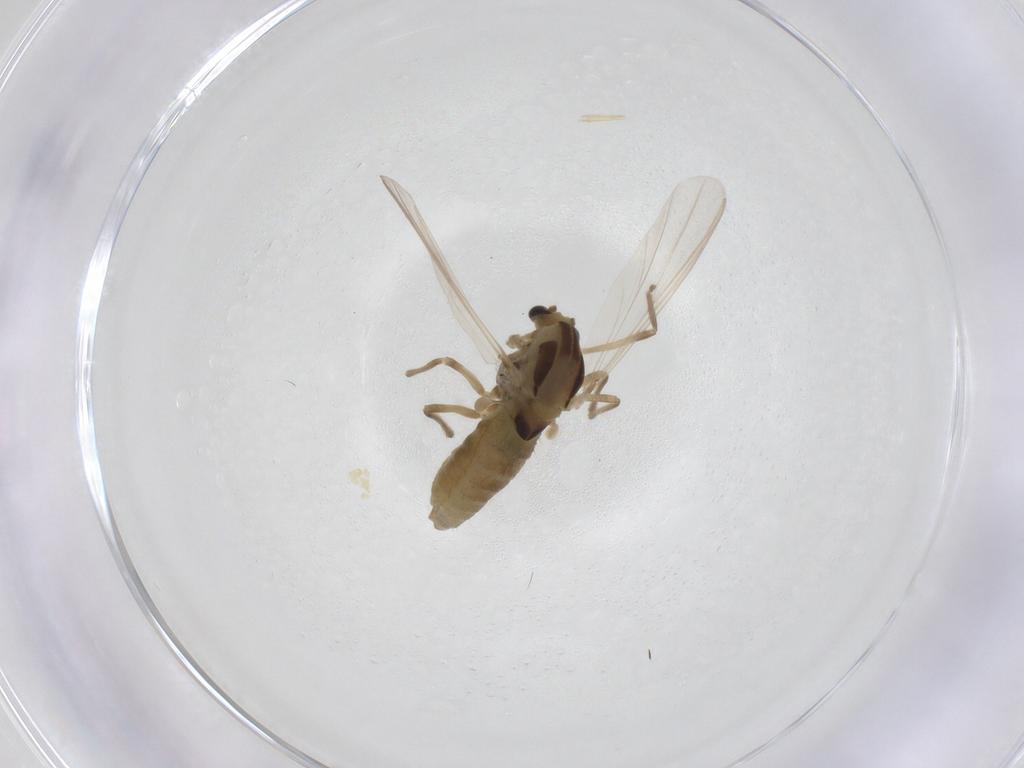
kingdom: Animalia
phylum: Arthropoda
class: Insecta
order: Diptera
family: Chironomidae
